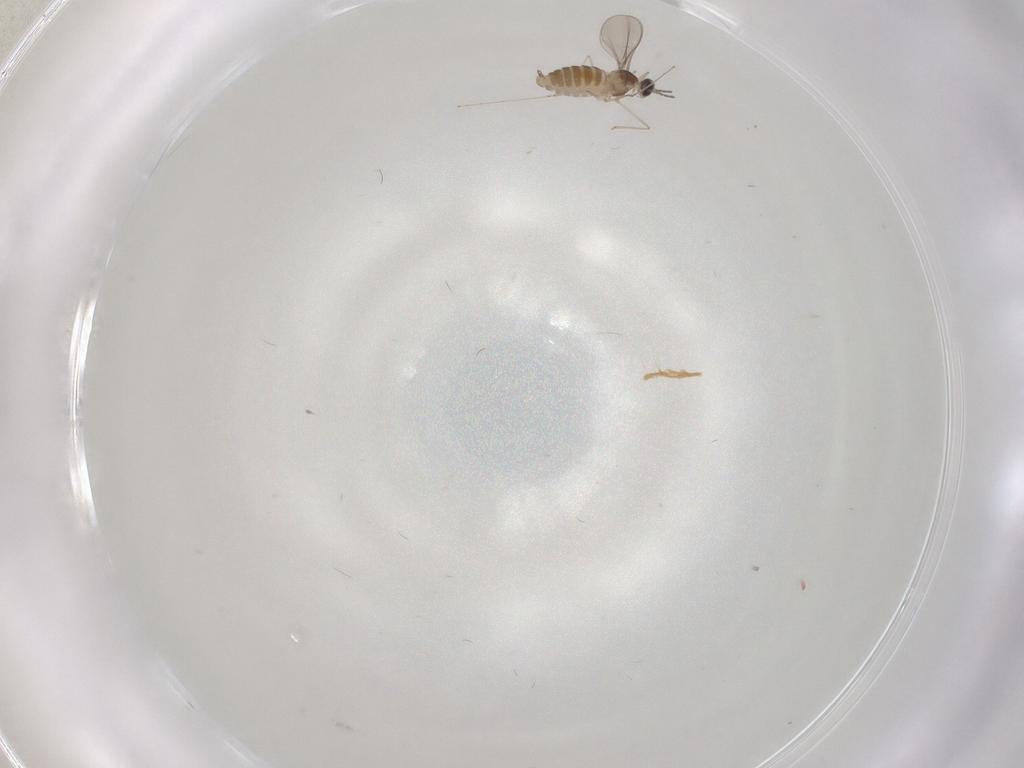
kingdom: Animalia
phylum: Arthropoda
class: Insecta
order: Diptera
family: Cecidomyiidae
